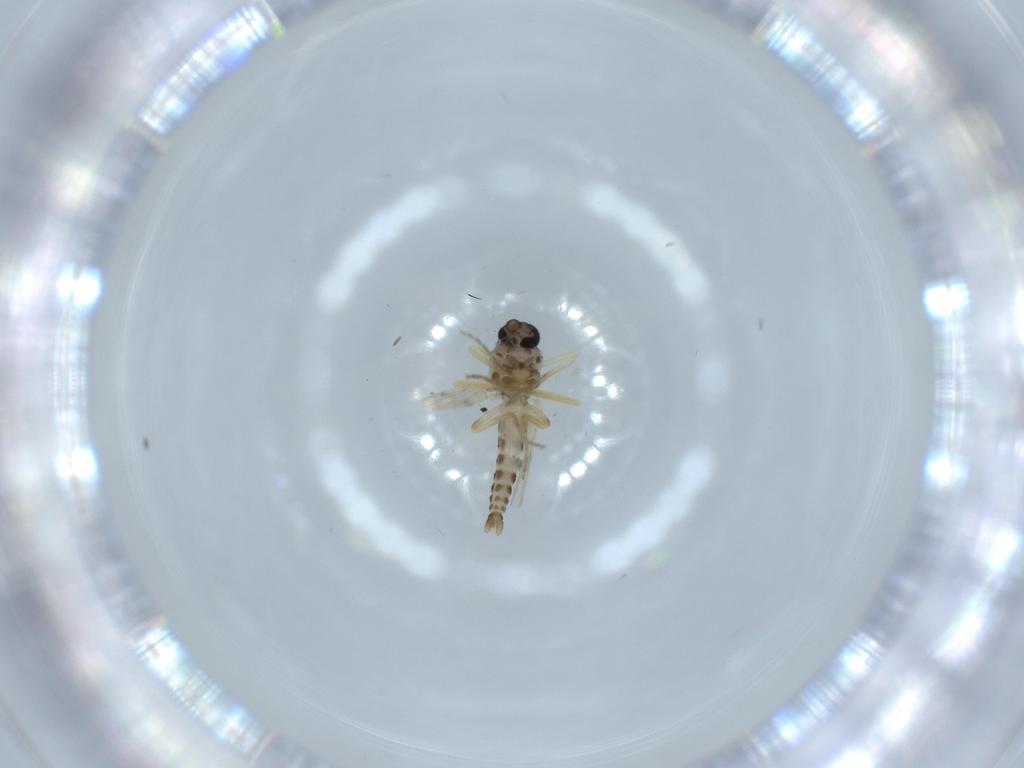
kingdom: Animalia
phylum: Arthropoda
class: Insecta
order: Diptera
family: Ceratopogonidae
